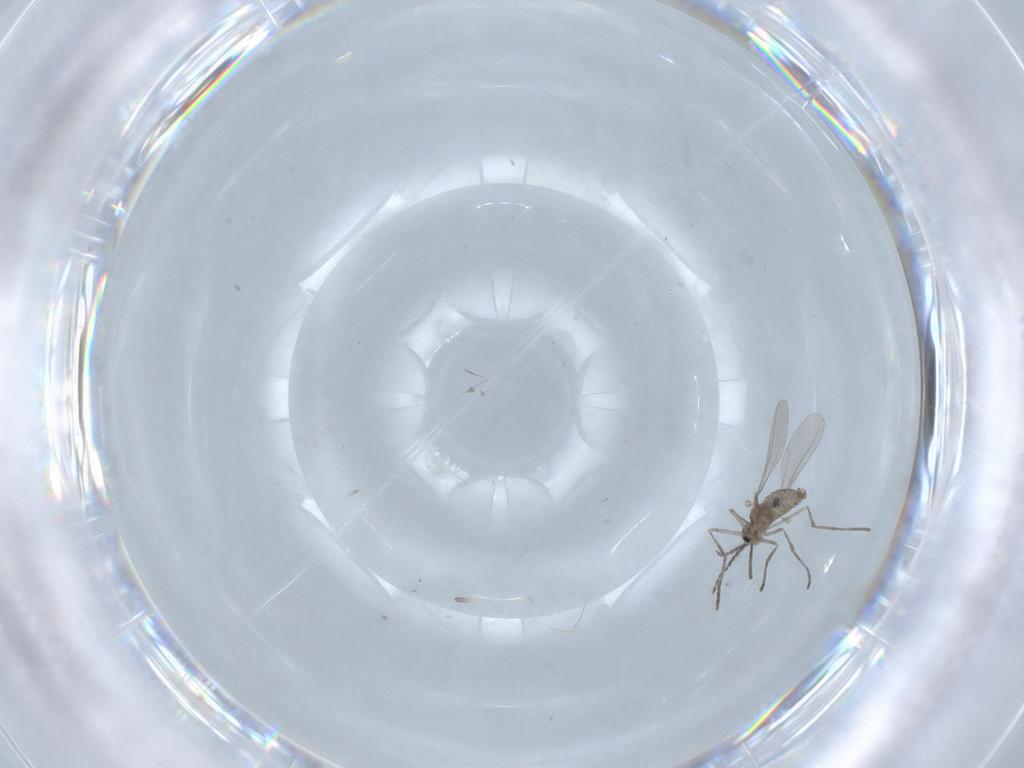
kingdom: Animalia
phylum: Arthropoda
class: Insecta
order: Diptera
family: Cecidomyiidae
